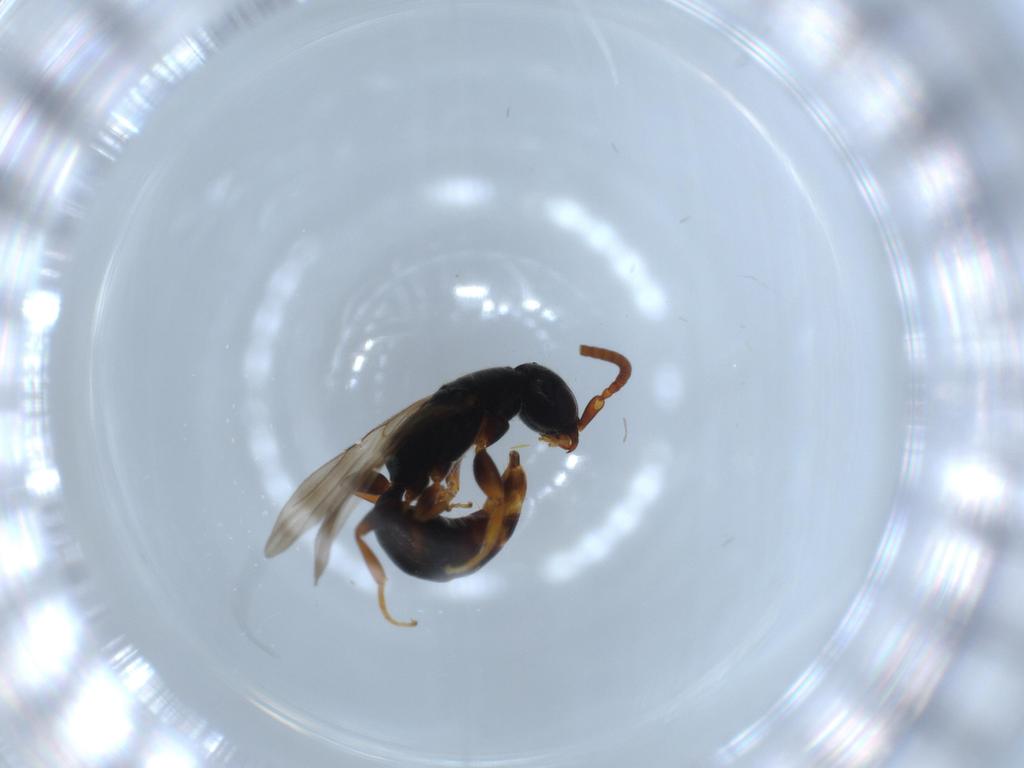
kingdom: Animalia
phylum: Arthropoda
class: Insecta
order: Hymenoptera
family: Bethylidae
